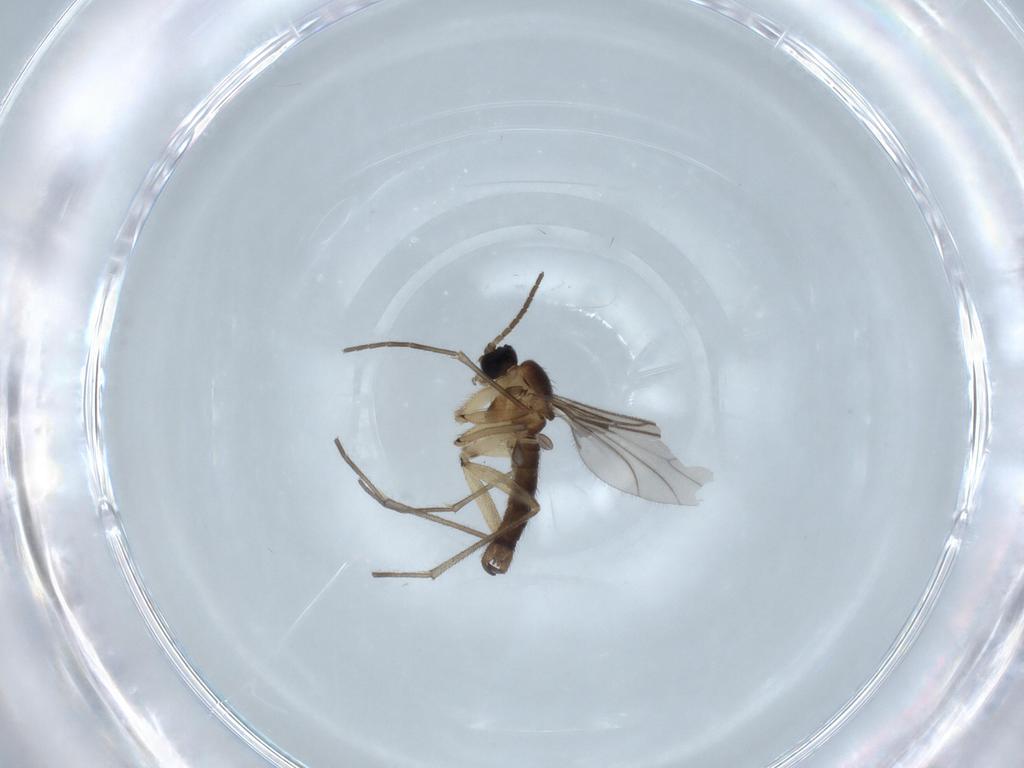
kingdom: Animalia
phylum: Arthropoda
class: Insecta
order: Diptera
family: Sciaridae
